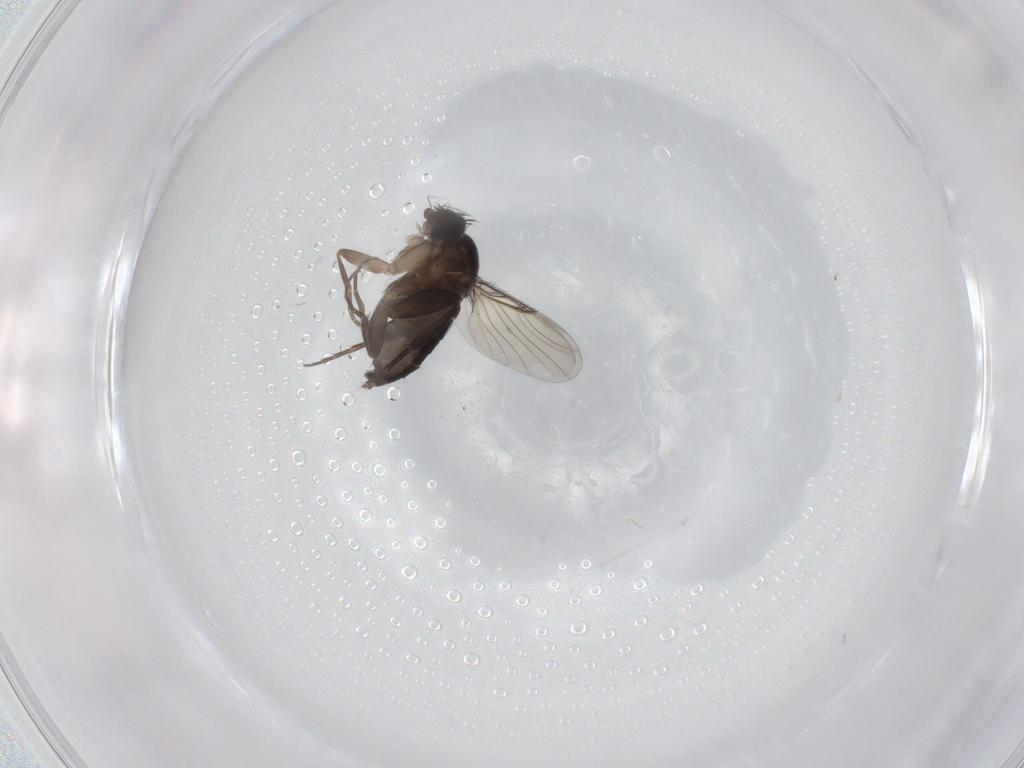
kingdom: Animalia
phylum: Arthropoda
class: Insecta
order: Diptera
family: Phoridae
